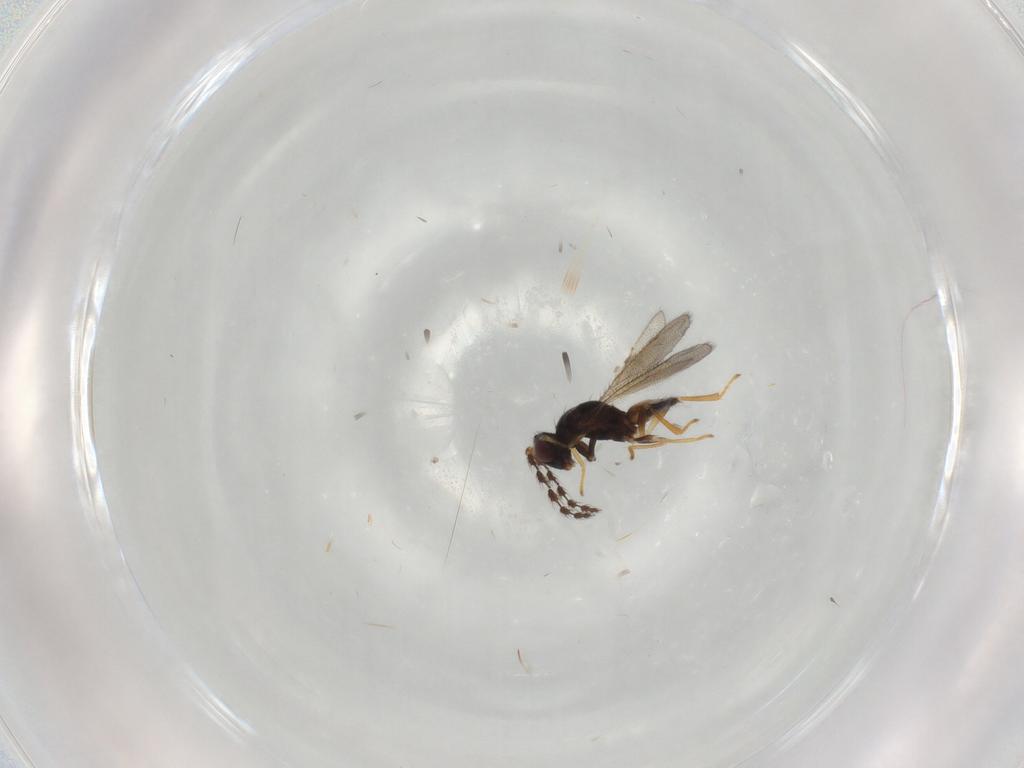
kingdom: Animalia
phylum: Arthropoda
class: Insecta
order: Hymenoptera
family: Eulophidae
